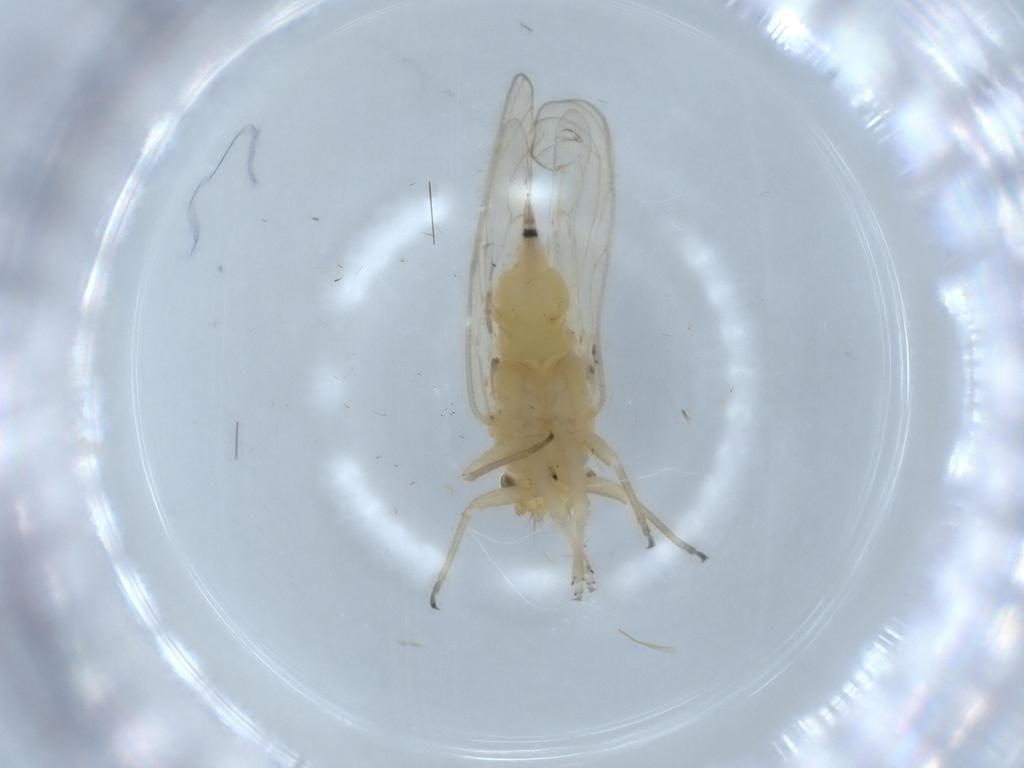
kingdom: Animalia
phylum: Arthropoda
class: Insecta
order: Hemiptera
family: Psyllidae
